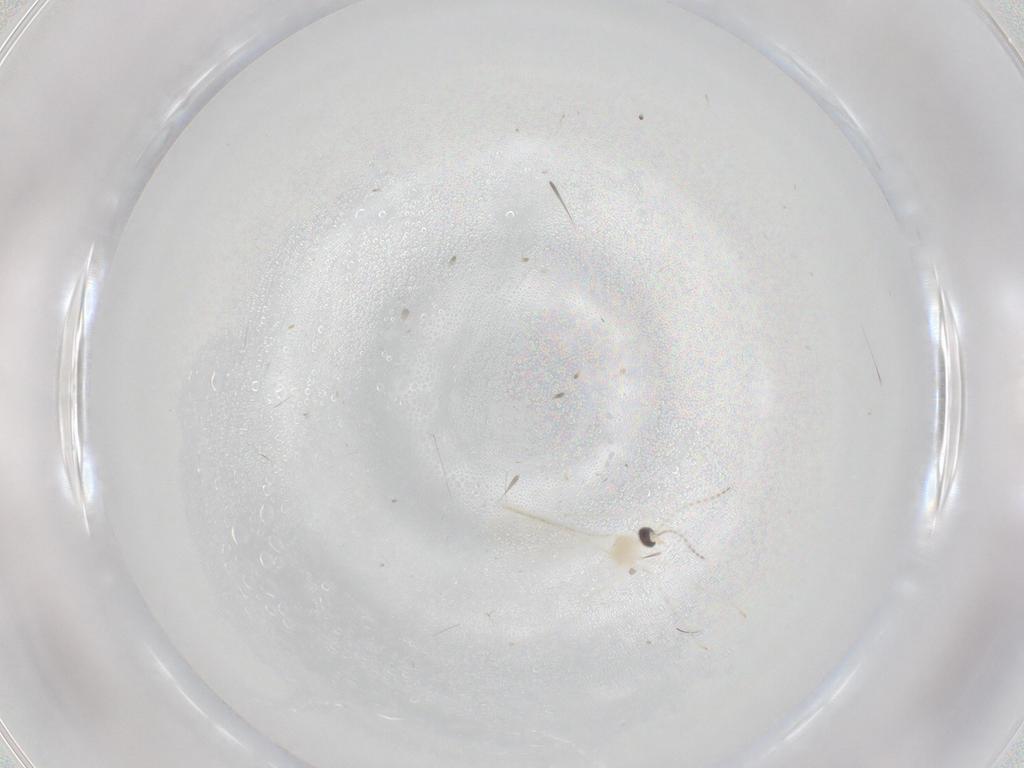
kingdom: Animalia
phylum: Arthropoda
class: Insecta
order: Diptera
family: Cecidomyiidae
